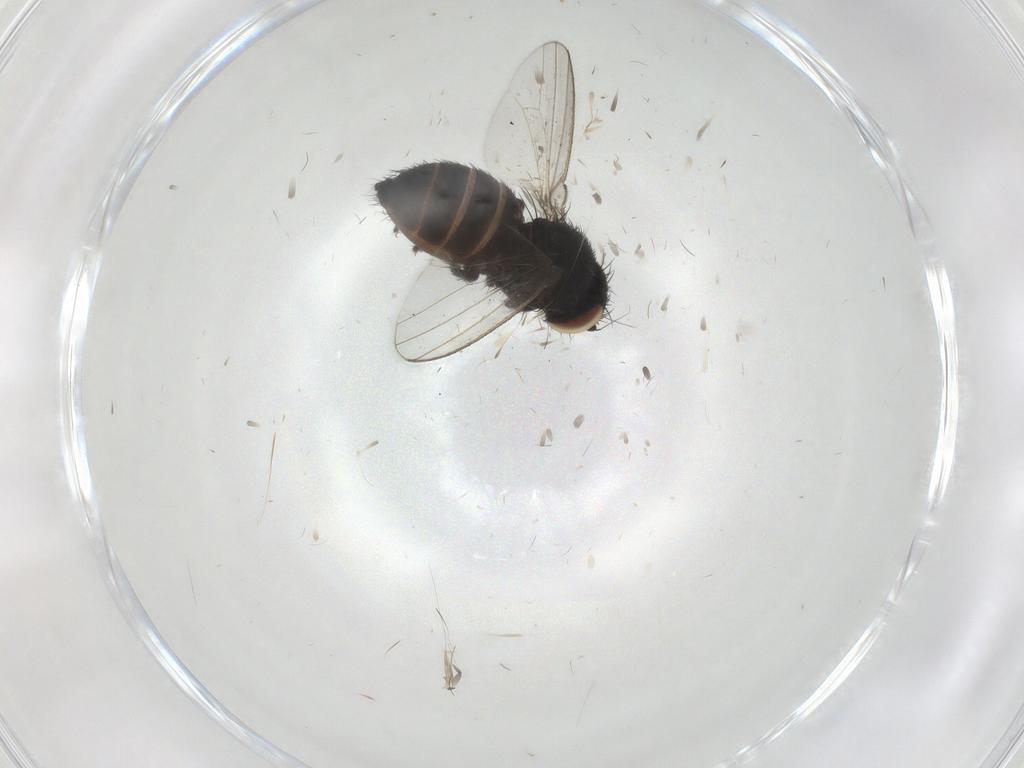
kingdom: Animalia
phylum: Arthropoda
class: Insecta
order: Diptera
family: Milichiidae
